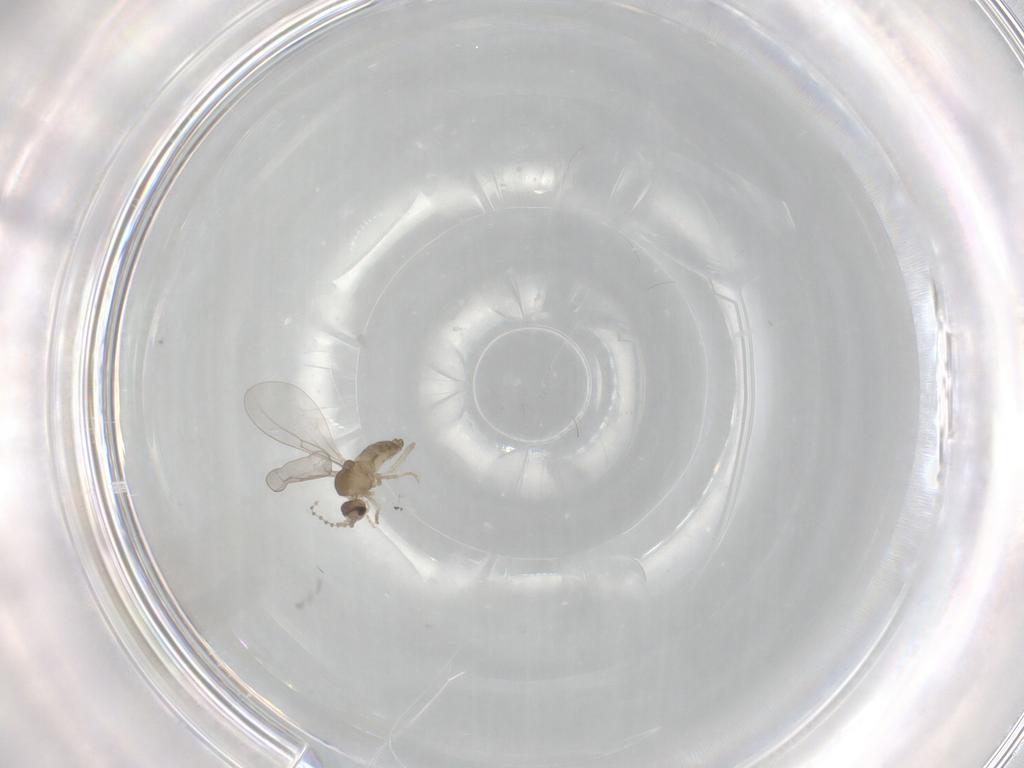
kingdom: Animalia
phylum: Arthropoda
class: Insecta
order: Diptera
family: Cecidomyiidae
